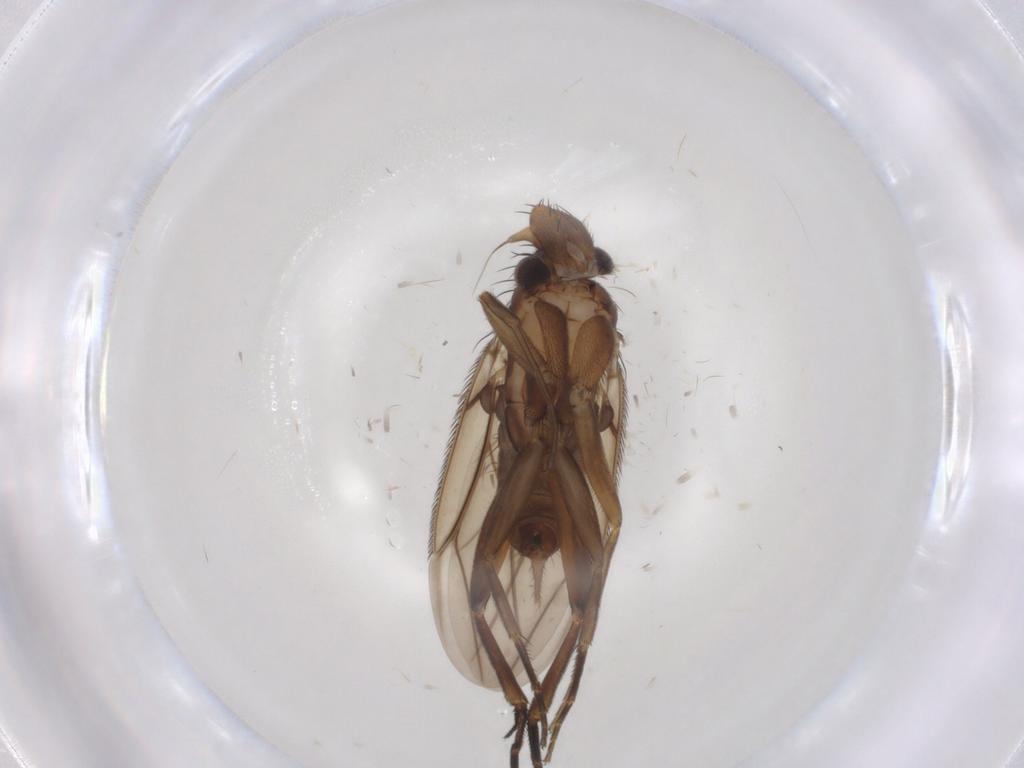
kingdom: Animalia
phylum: Arthropoda
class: Insecta
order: Diptera
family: Phoridae
